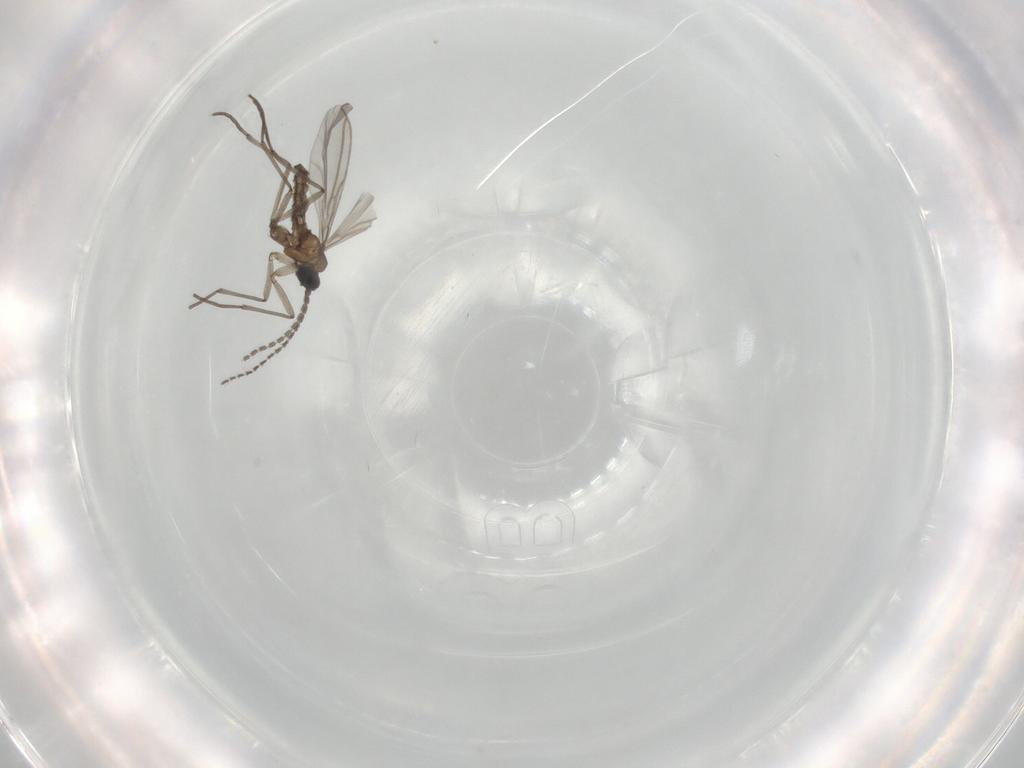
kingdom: Animalia
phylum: Arthropoda
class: Insecta
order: Diptera
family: Sciaridae
